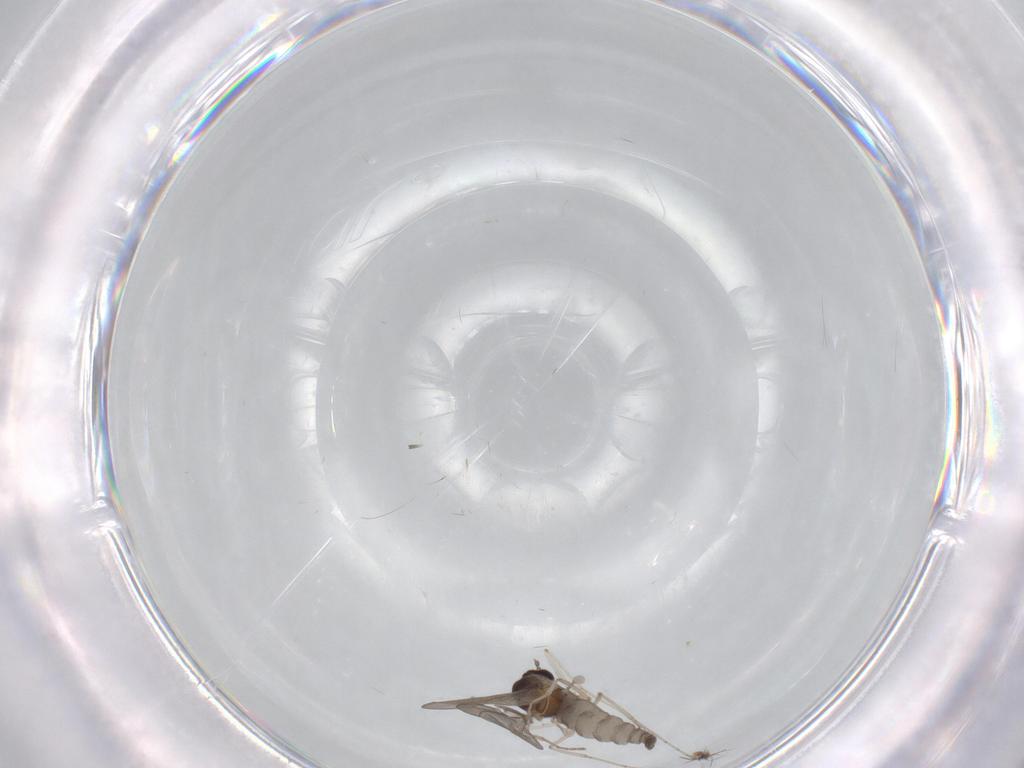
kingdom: Animalia
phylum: Arthropoda
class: Insecta
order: Diptera
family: Cecidomyiidae
